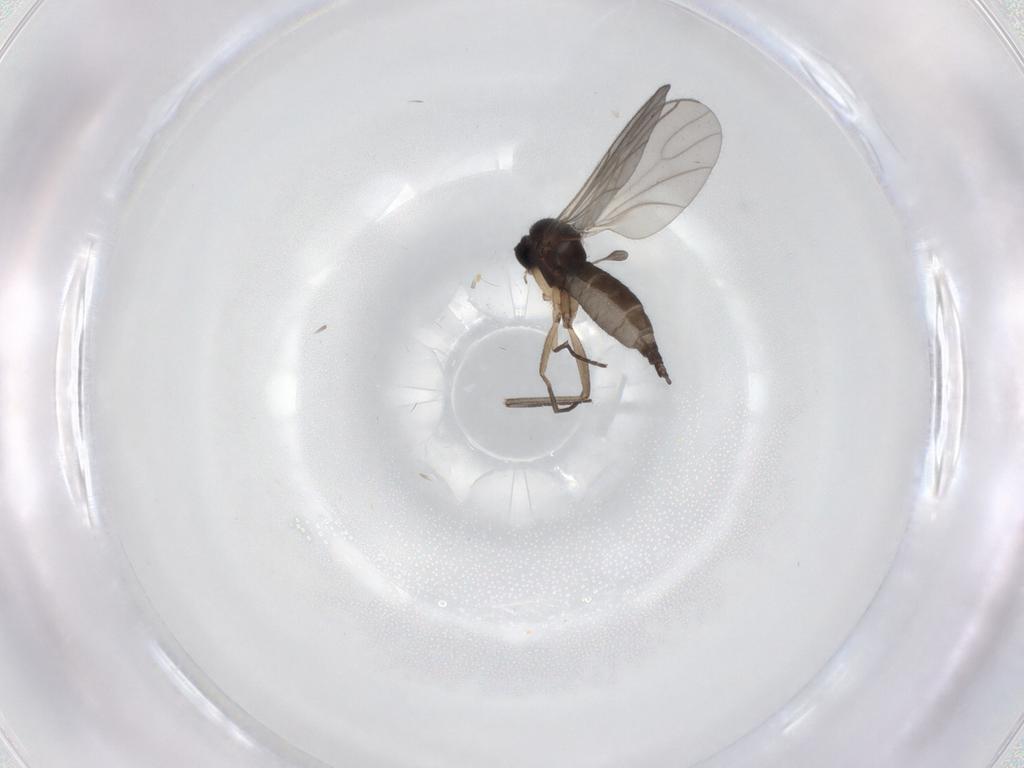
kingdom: Animalia
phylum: Arthropoda
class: Insecta
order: Diptera
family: Sciaridae
